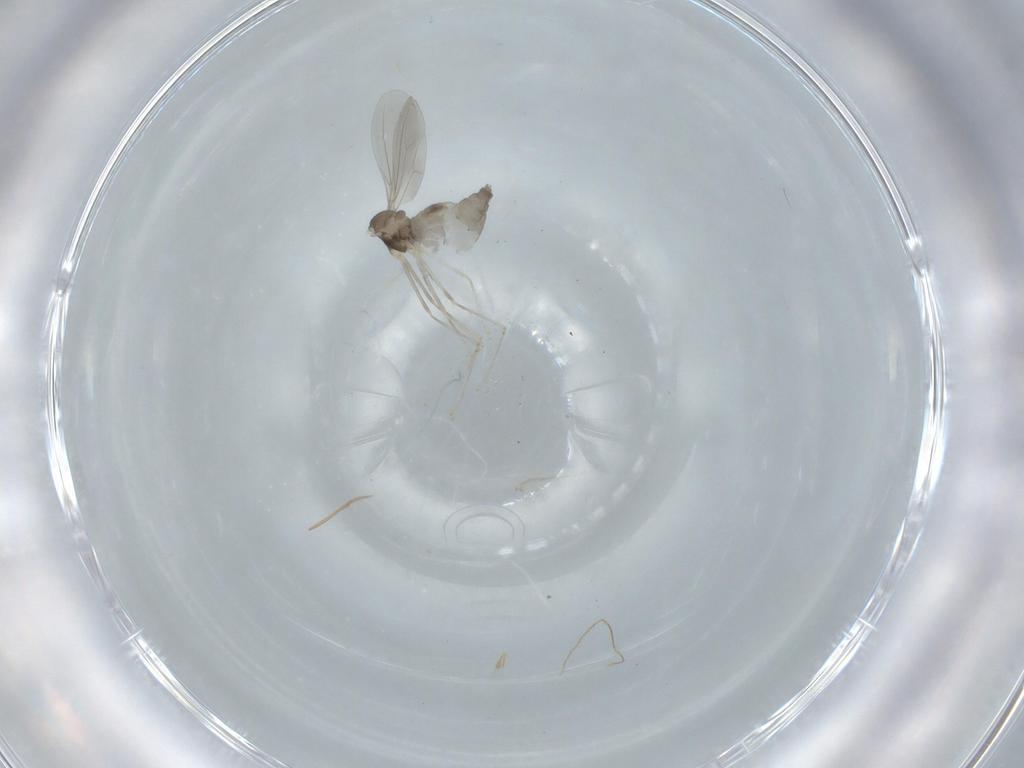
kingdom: Animalia
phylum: Arthropoda
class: Insecta
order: Diptera
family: Cecidomyiidae
